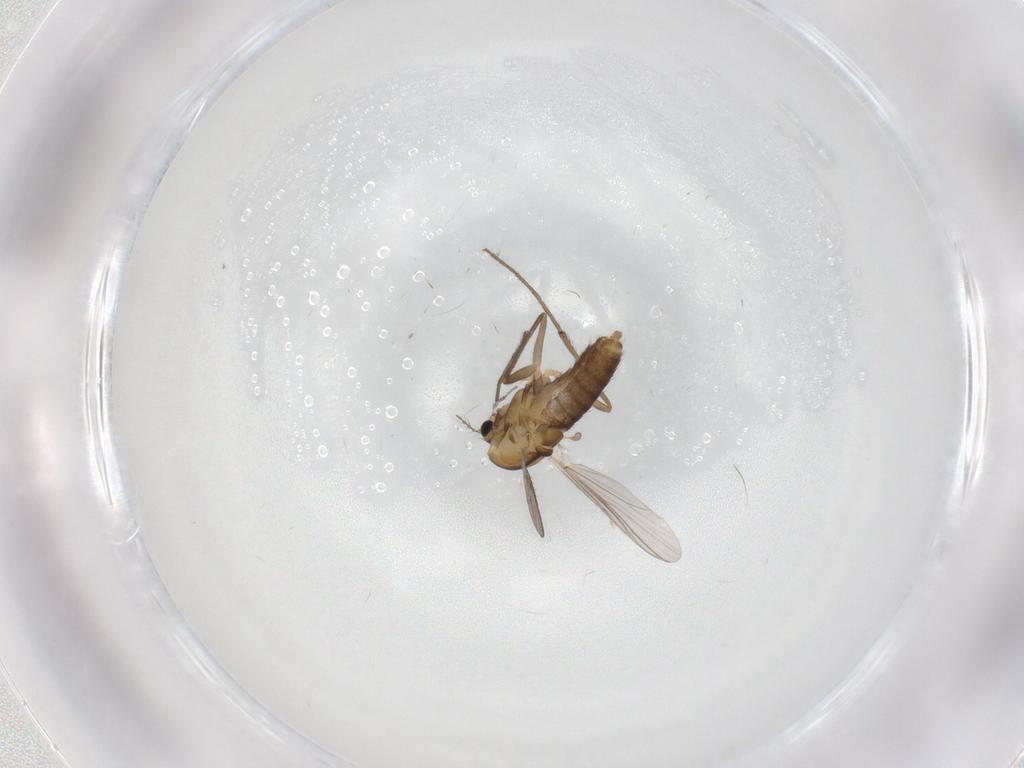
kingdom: Animalia
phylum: Arthropoda
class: Insecta
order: Diptera
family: Chironomidae
